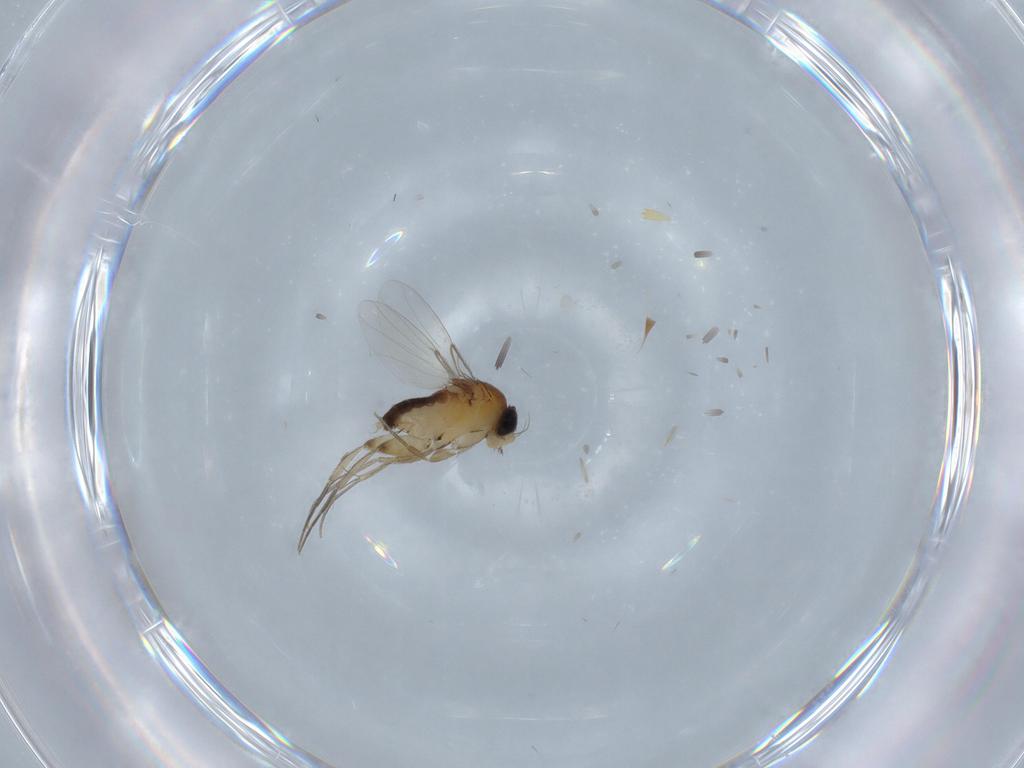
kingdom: Animalia
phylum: Arthropoda
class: Insecta
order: Diptera
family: Phoridae
